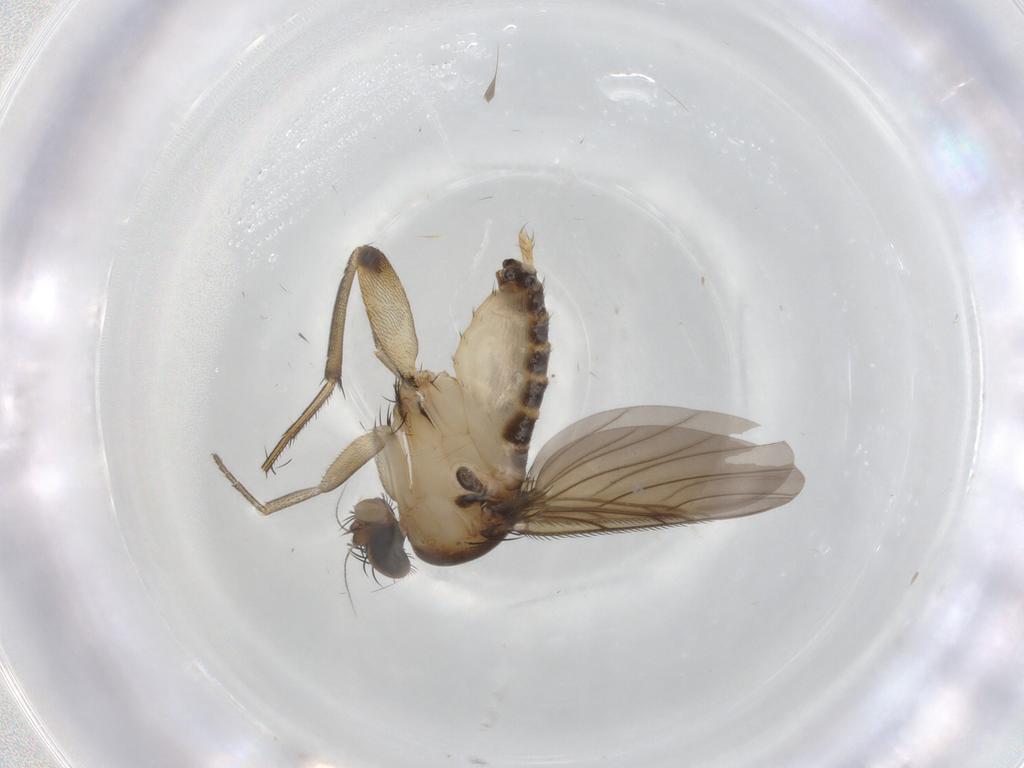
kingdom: Animalia
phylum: Arthropoda
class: Insecta
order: Diptera
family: Phoridae
